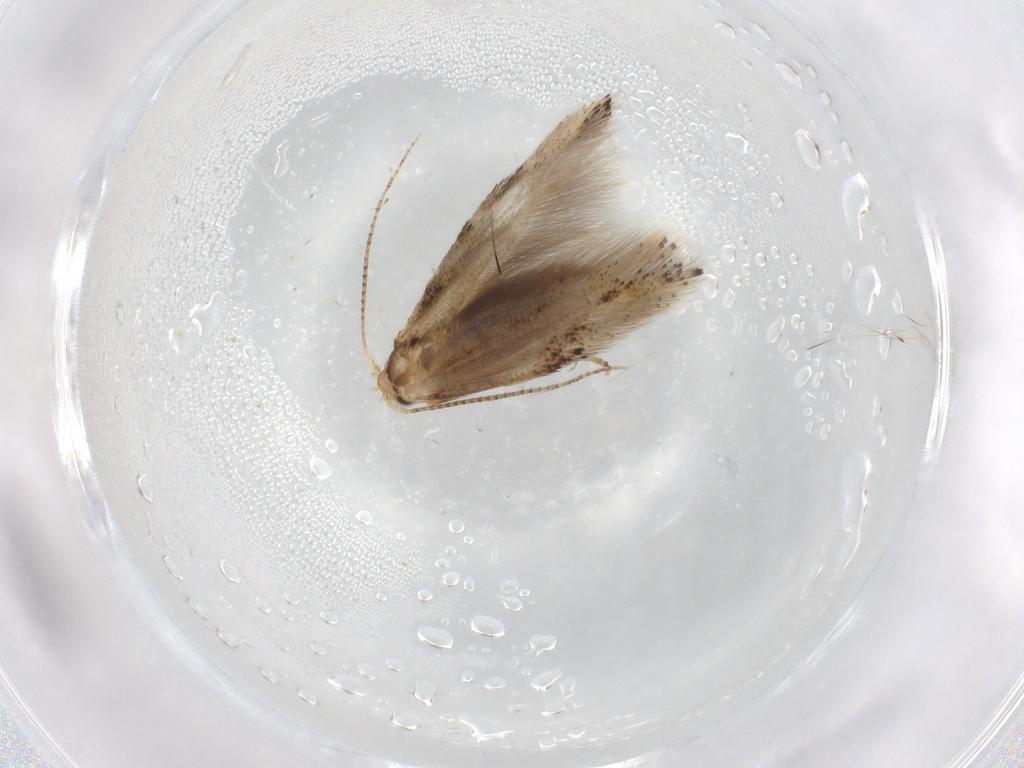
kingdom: Animalia
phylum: Arthropoda
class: Insecta
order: Lepidoptera
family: Bucculatricidae
